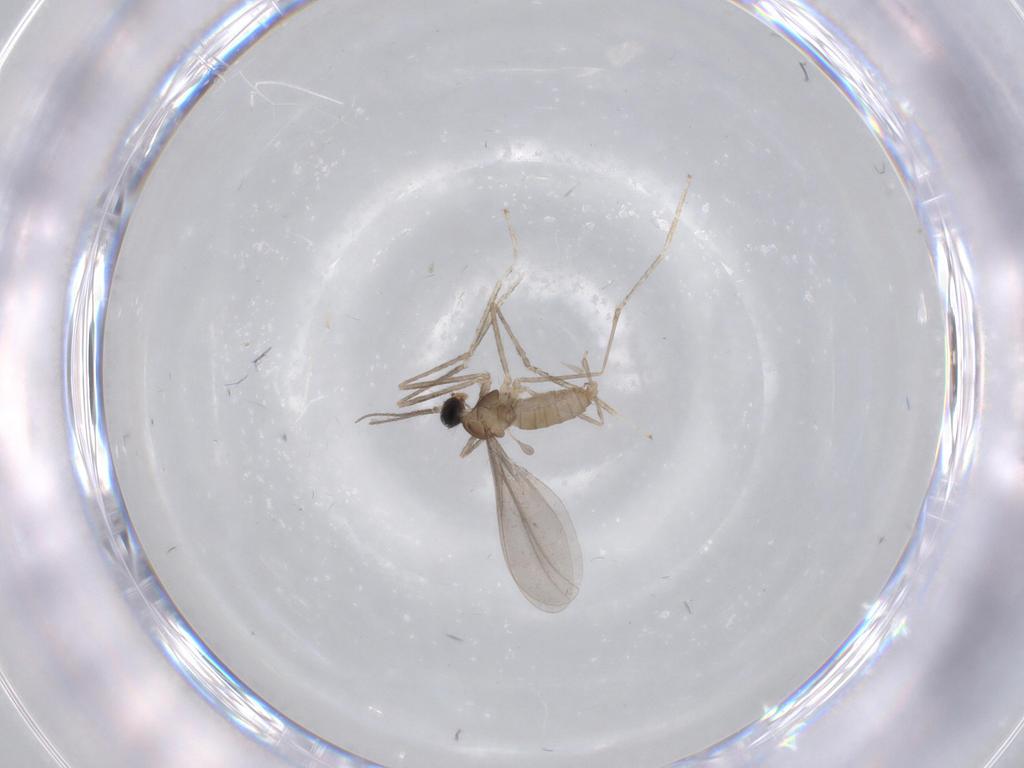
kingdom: Animalia
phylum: Arthropoda
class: Insecta
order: Diptera
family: Cecidomyiidae
